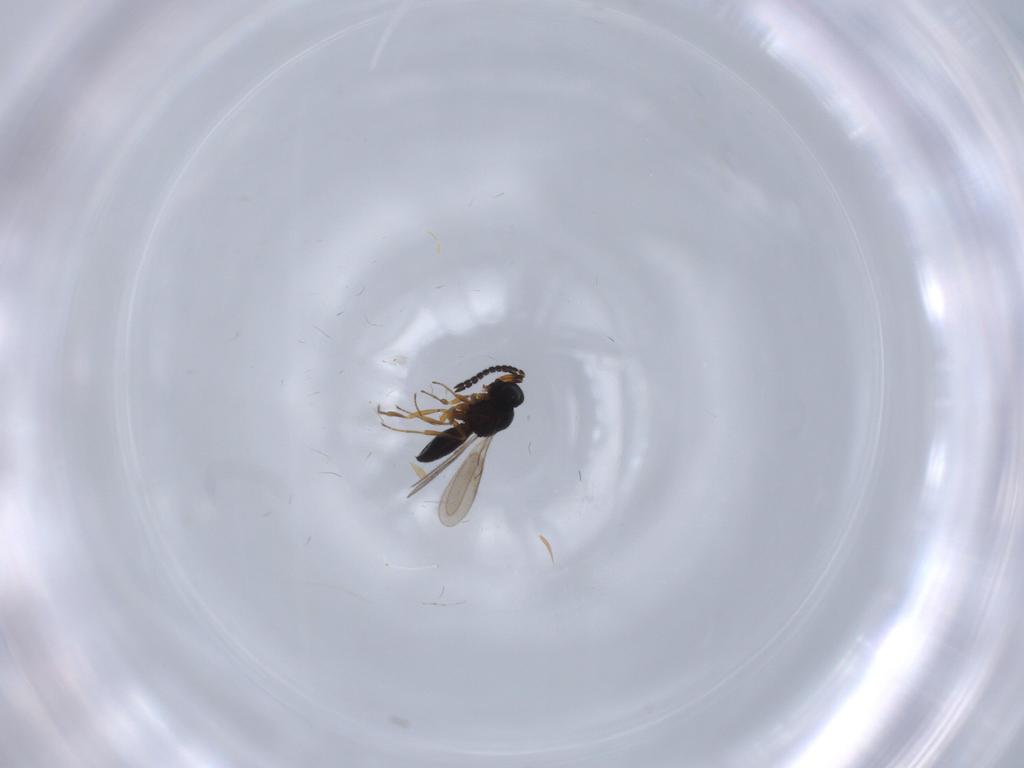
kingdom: Animalia
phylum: Arthropoda
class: Insecta
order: Hymenoptera
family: Scelionidae
